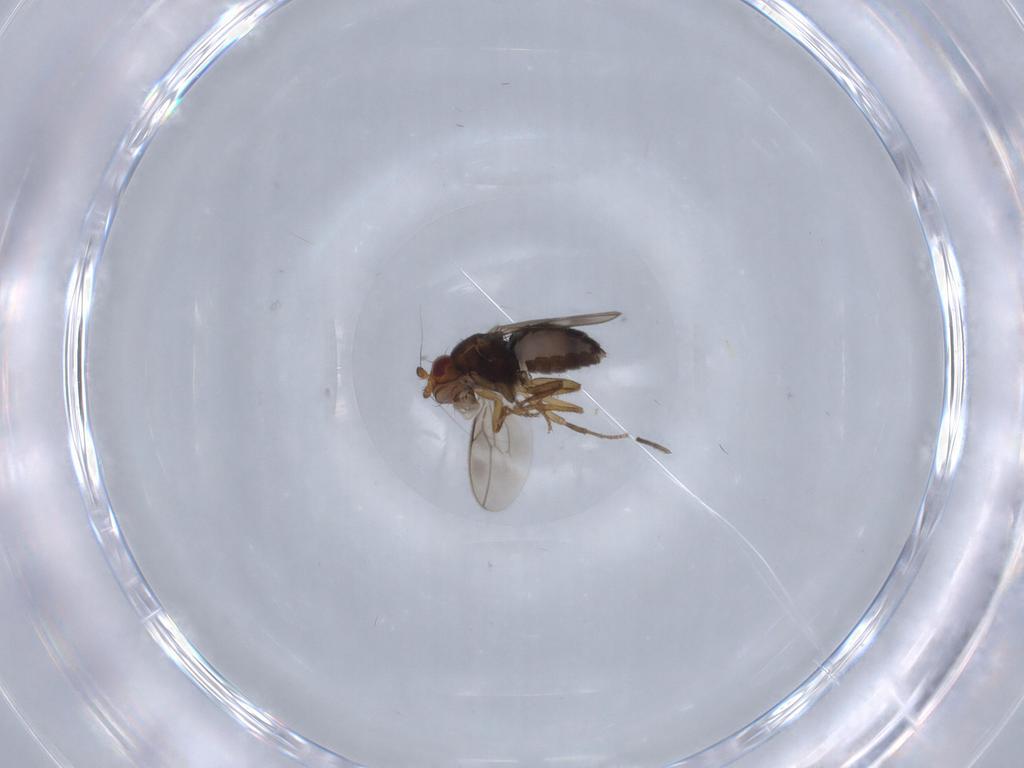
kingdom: Animalia
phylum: Arthropoda
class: Insecta
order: Diptera
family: Sphaeroceridae
